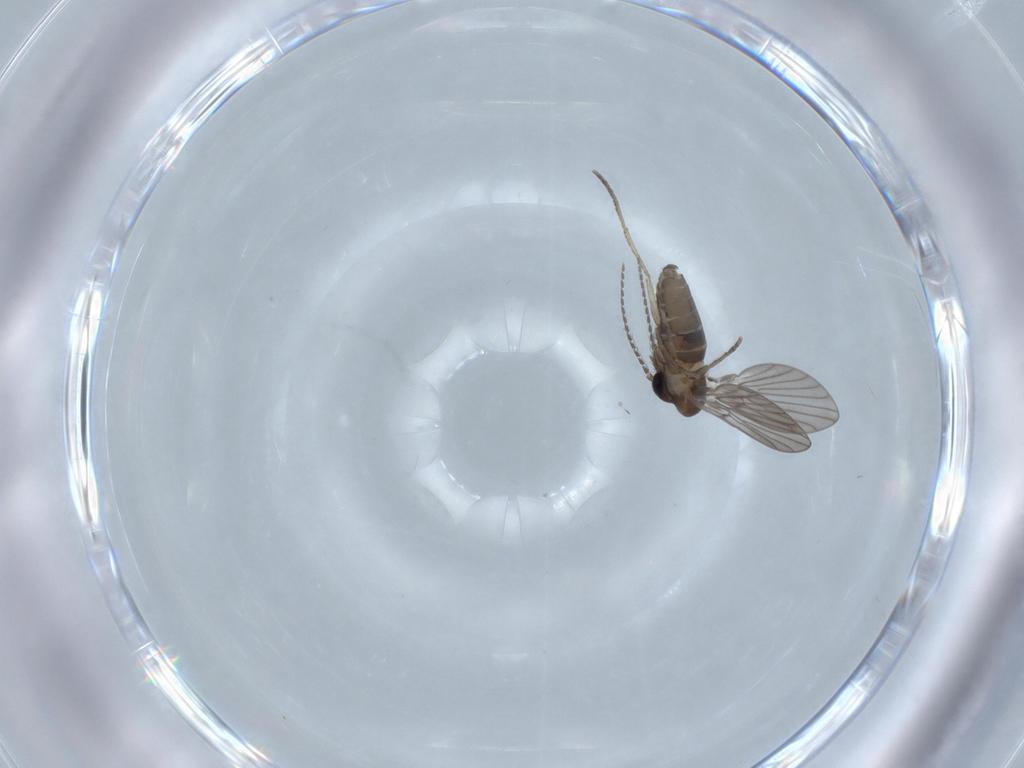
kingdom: Animalia
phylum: Arthropoda
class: Insecta
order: Diptera
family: Psychodidae
